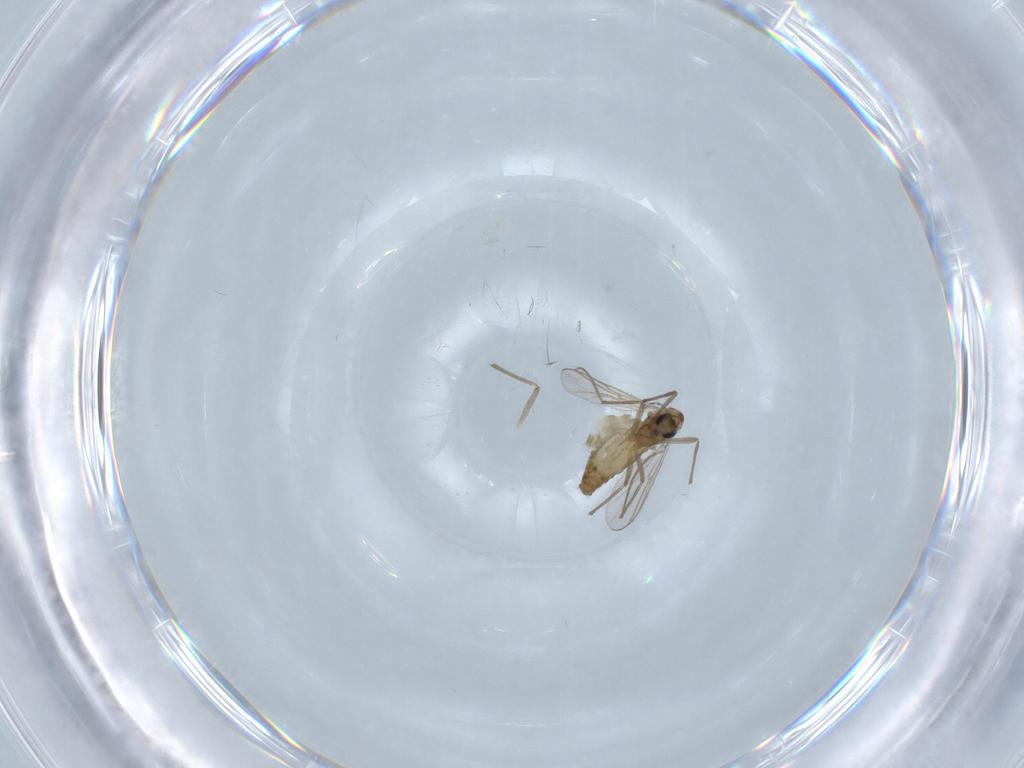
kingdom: Animalia
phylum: Arthropoda
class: Insecta
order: Diptera
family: Chironomidae
